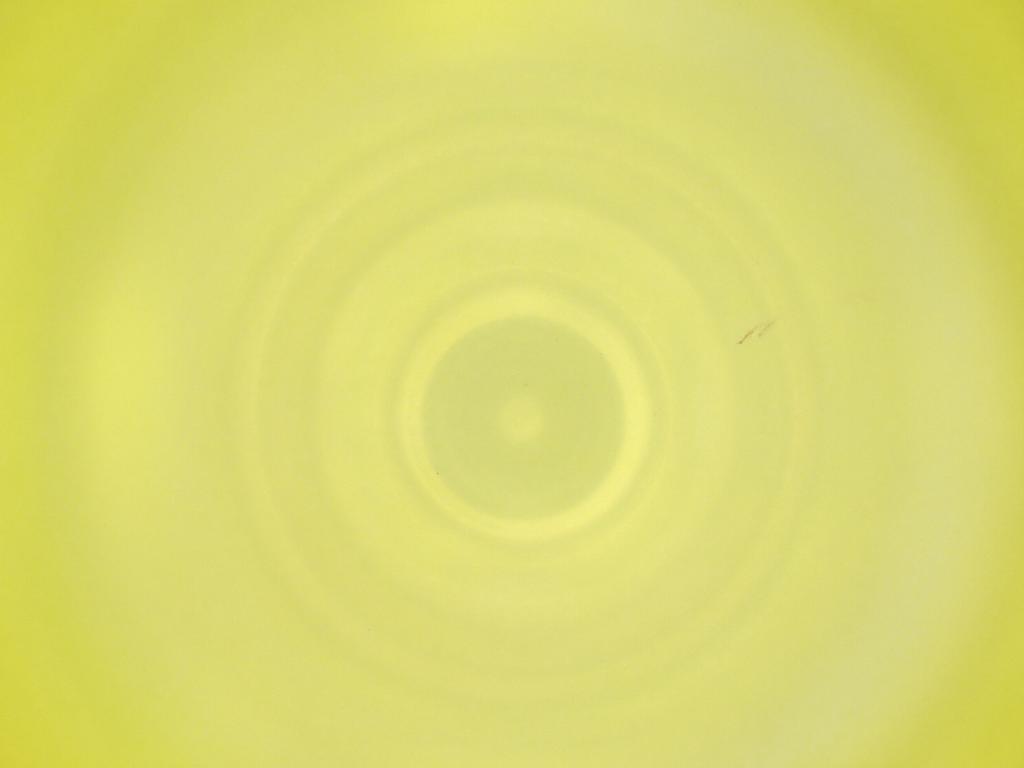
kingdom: Animalia
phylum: Arthropoda
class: Insecta
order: Diptera
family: Cecidomyiidae
